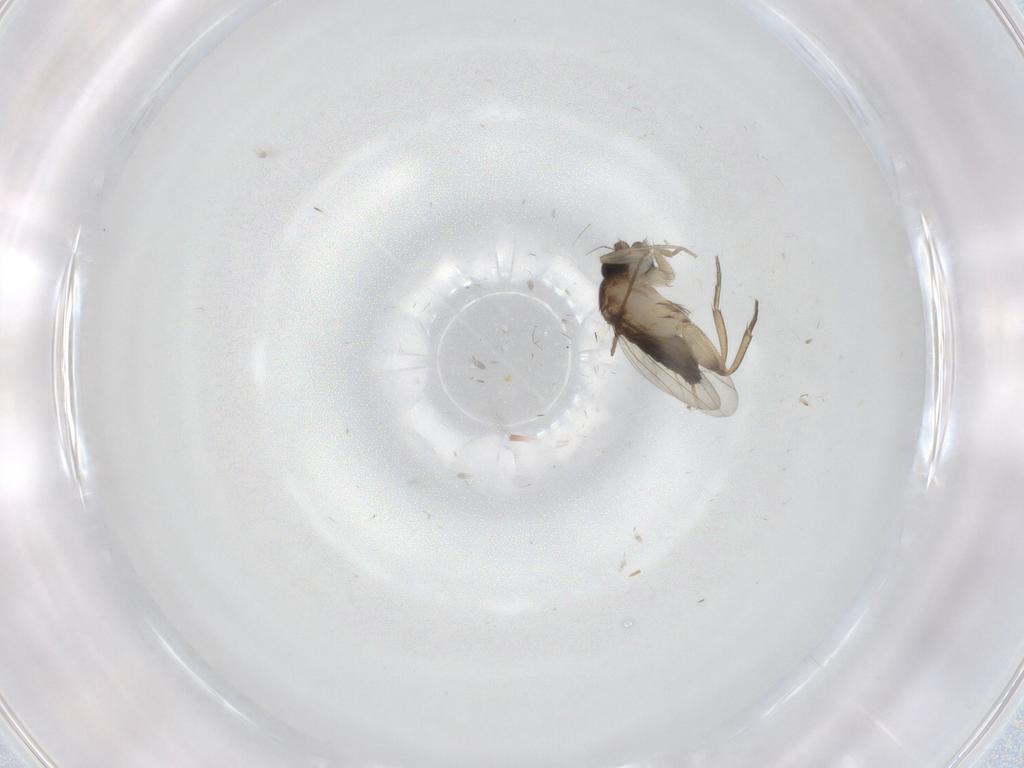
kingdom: Animalia
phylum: Arthropoda
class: Insecta
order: Diptera
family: Phoridae
